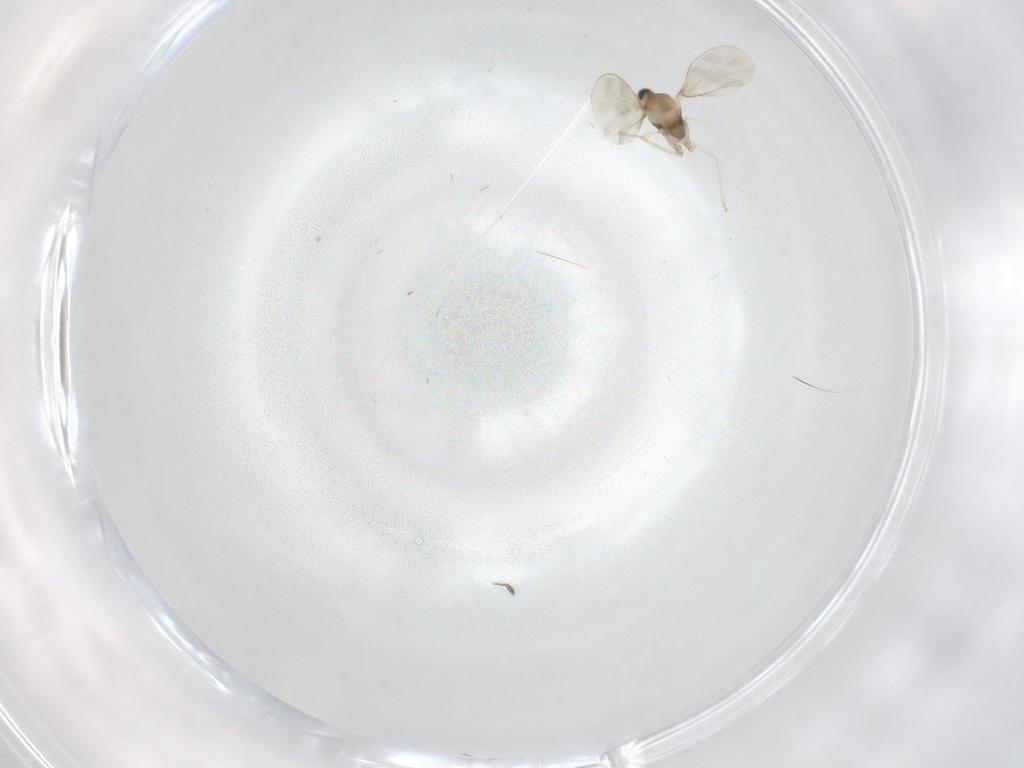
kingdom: Animalia
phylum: Arthropoda
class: Insecta
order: Diptera
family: Cecidomyiidae
